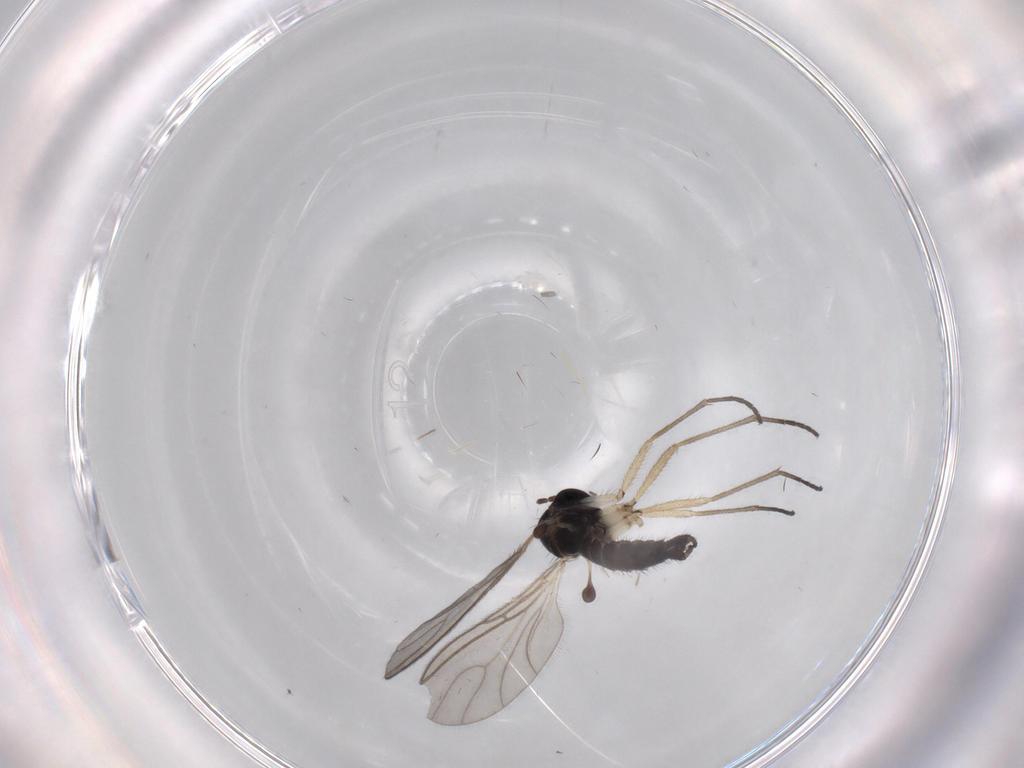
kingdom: Animalia
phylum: Arthropoda
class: Insecta
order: Diptera
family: Sciaridae
